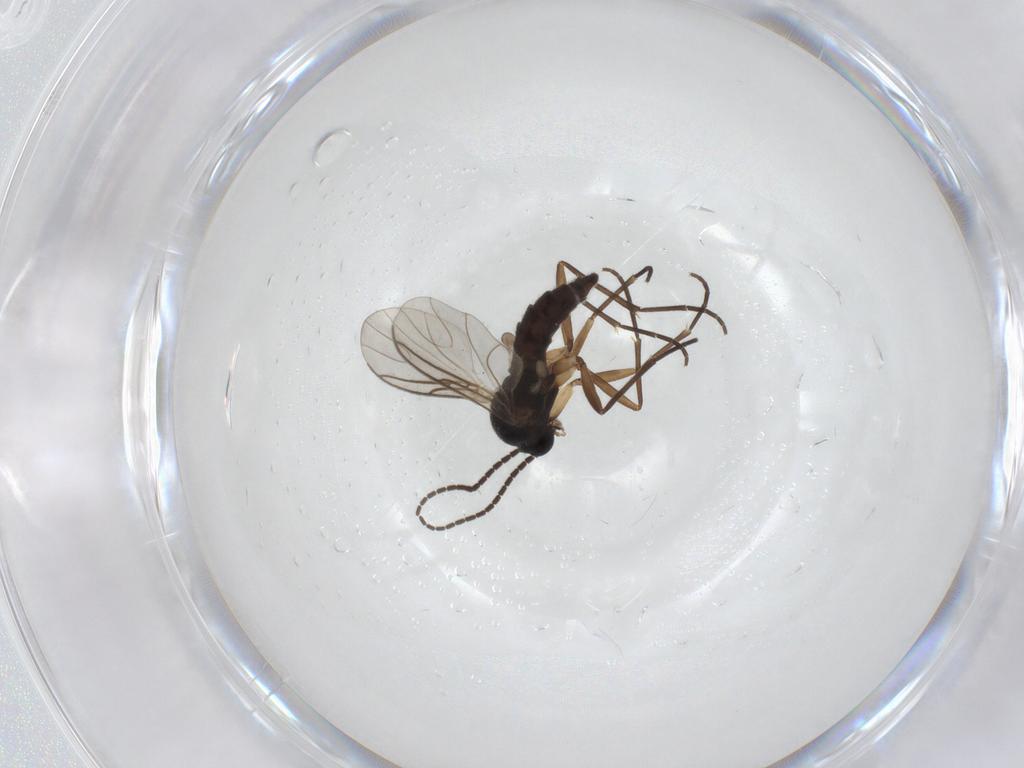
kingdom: Animalia
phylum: Arthropoda
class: Insecta
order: Diptera
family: Sciaridae
